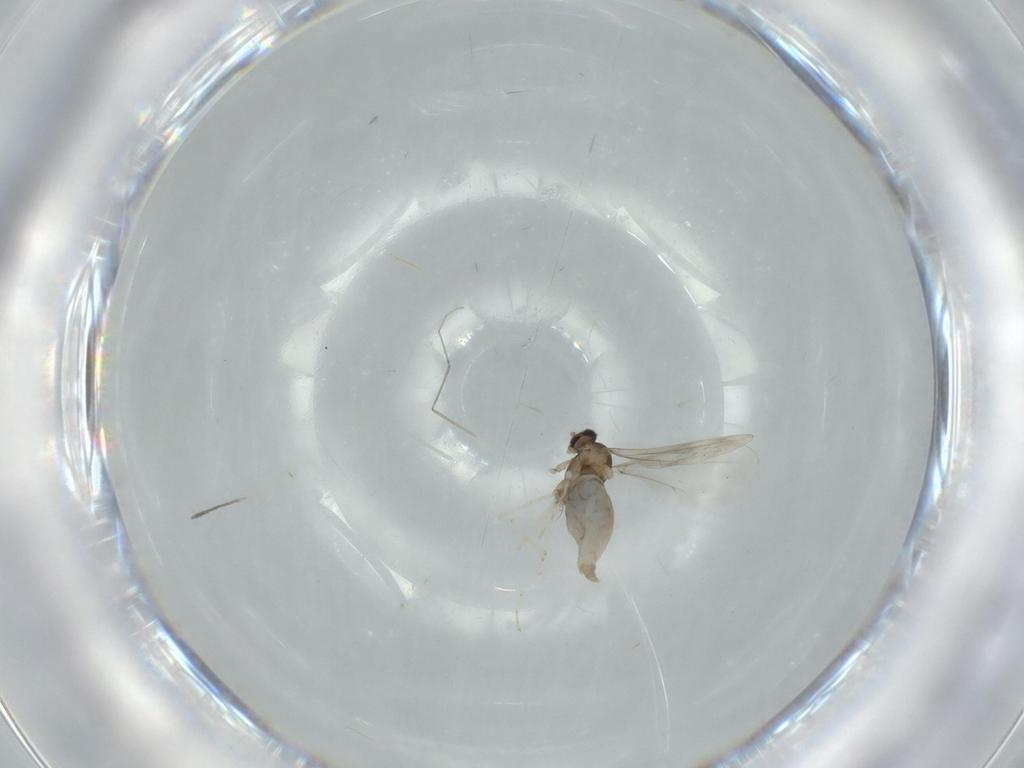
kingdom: Animalia
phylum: Arthropoda
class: Insecta
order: Diptera
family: Cecidomyiidae
